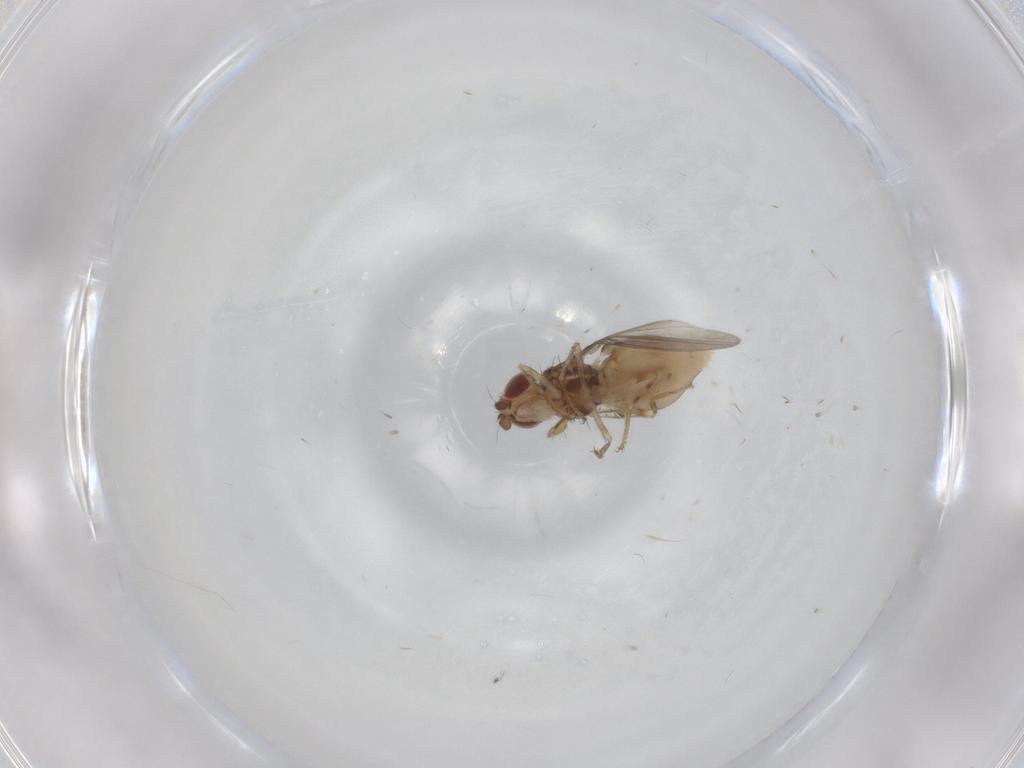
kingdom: Animalia
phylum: Arthropoda
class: Insecta
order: Diptera
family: Asteiidae
